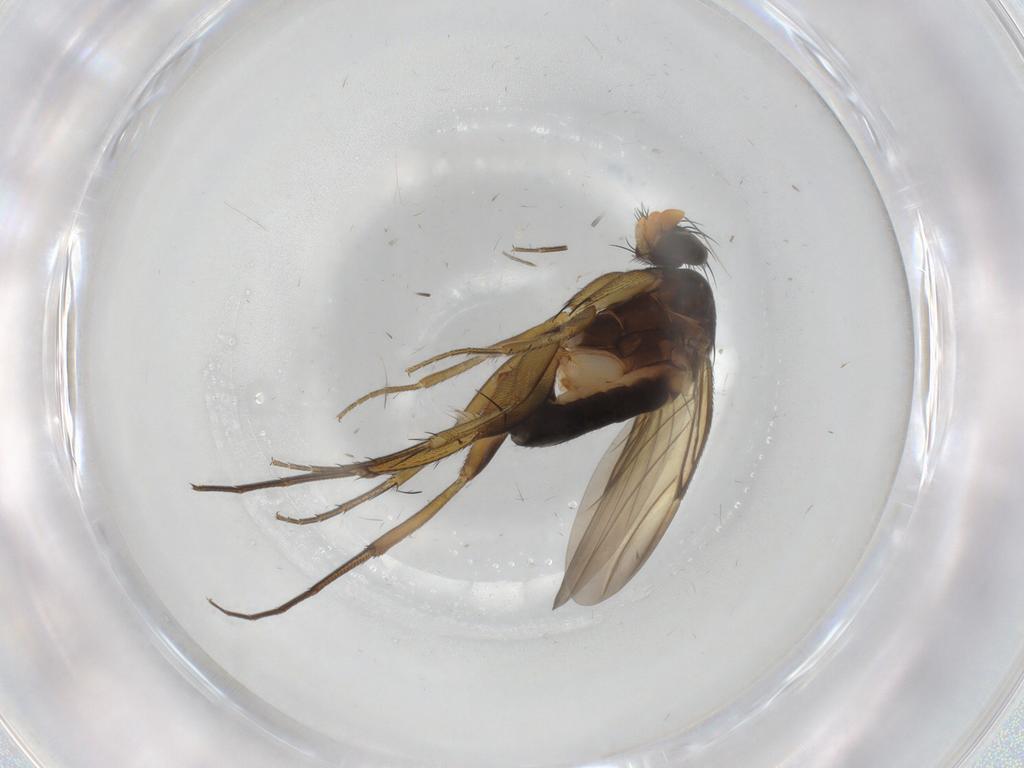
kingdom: Animalia
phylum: Arthropoda
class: Insecta
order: Diptera
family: Phoridae
